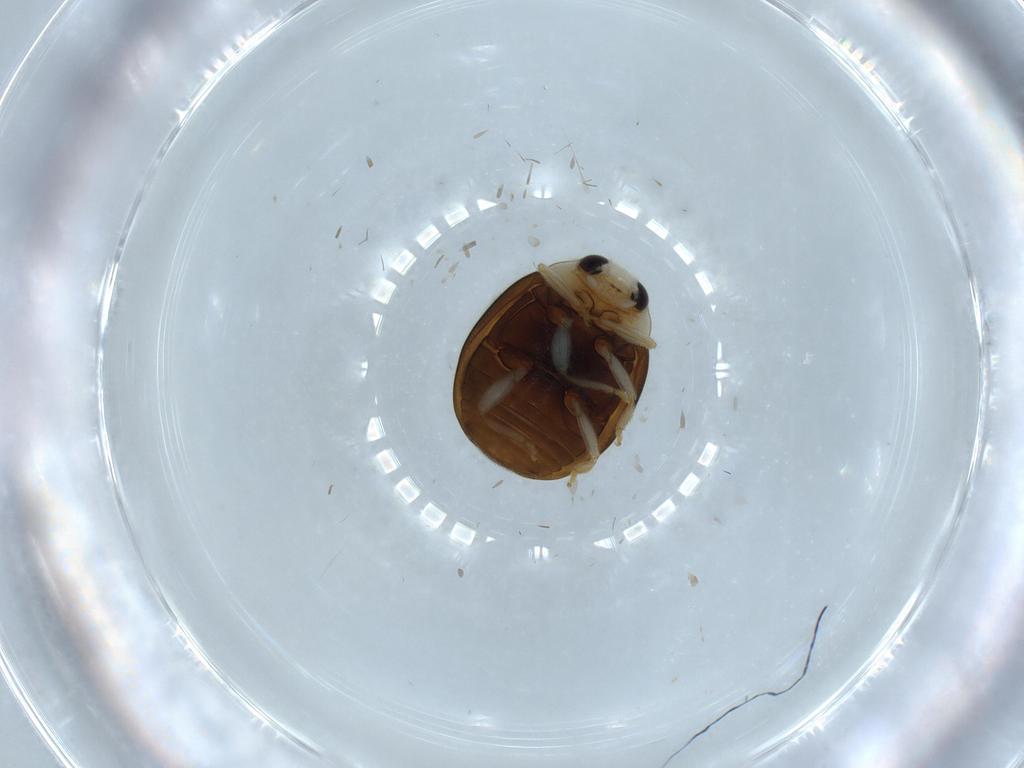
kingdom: Animalia
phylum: Arthropoda
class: Insecta
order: Coleoptera
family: Coccinellidae
